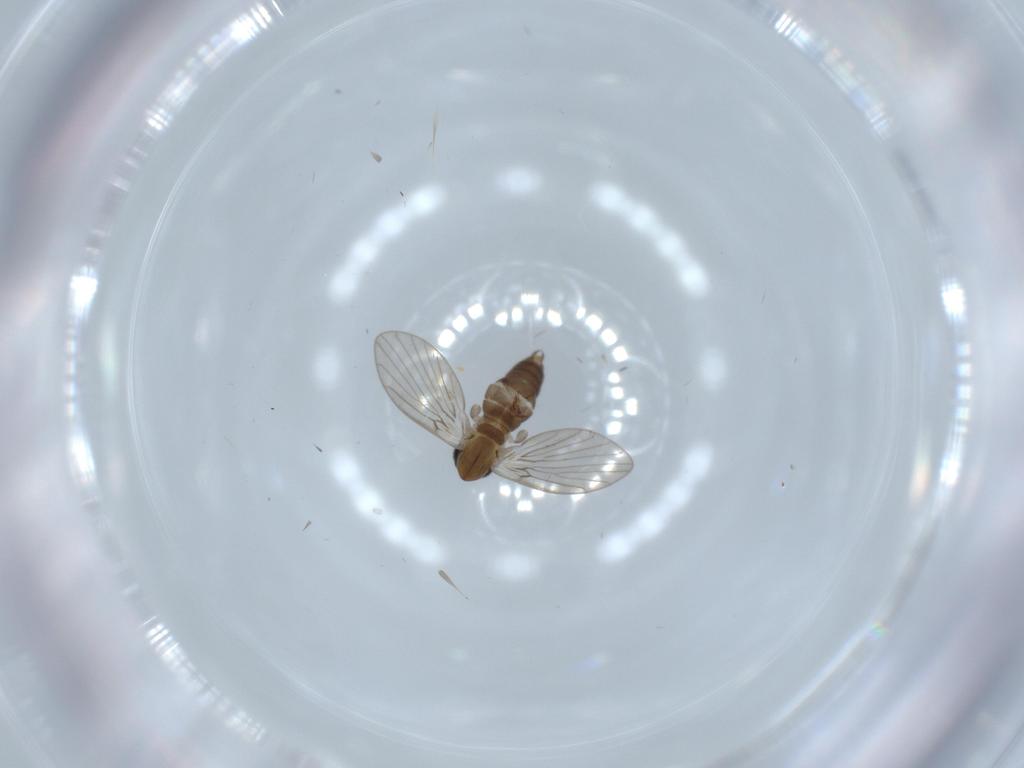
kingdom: Animalia
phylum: Arthropoda
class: Insecta
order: Diptera
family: Psychodidae
